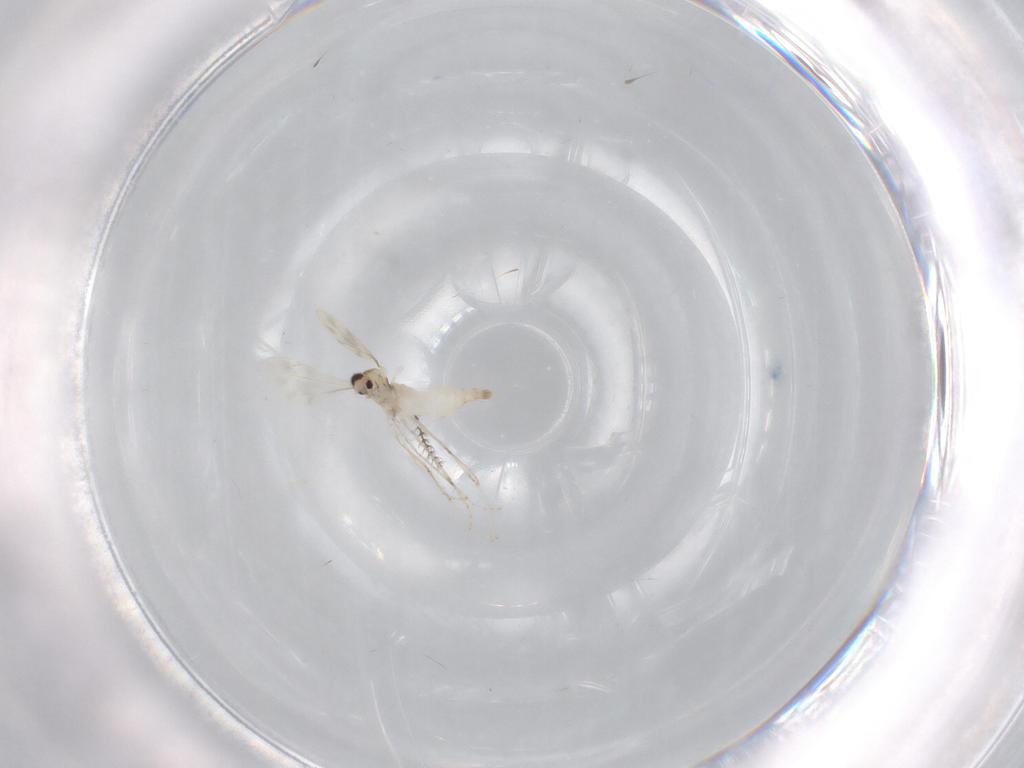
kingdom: Animalia
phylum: Arthropoda
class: Insecta
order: Diptera
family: Cecidomyiidae
